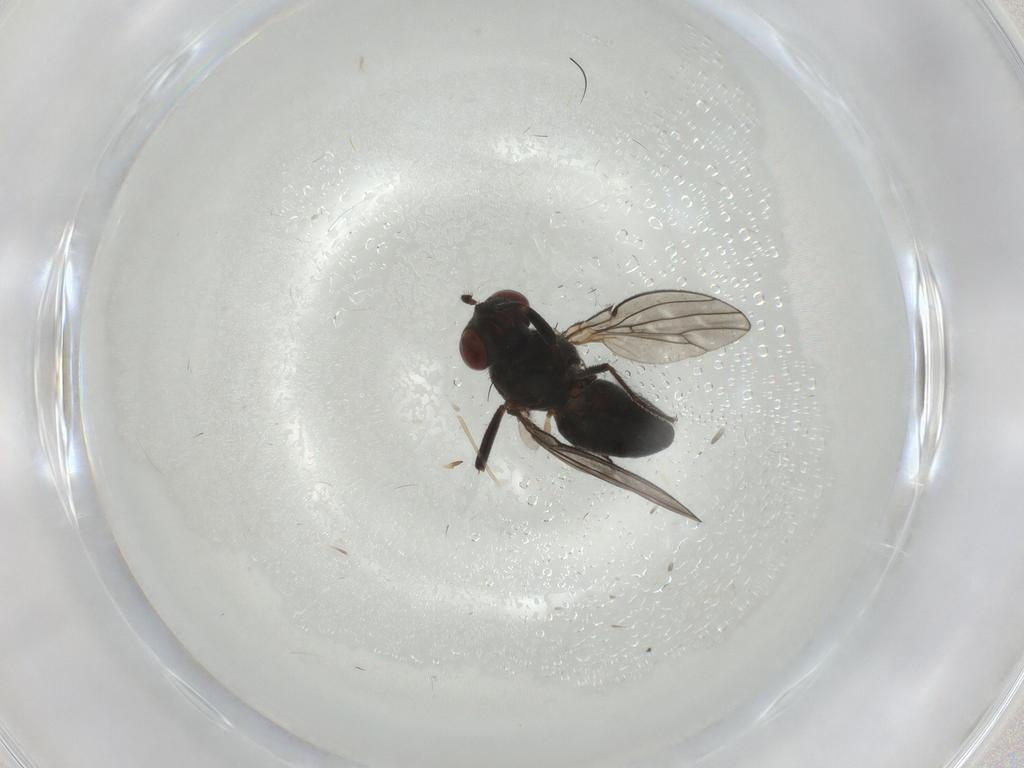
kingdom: Animalia
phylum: Arthropoda
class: Insecta
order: Diptera
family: Ephydridae
